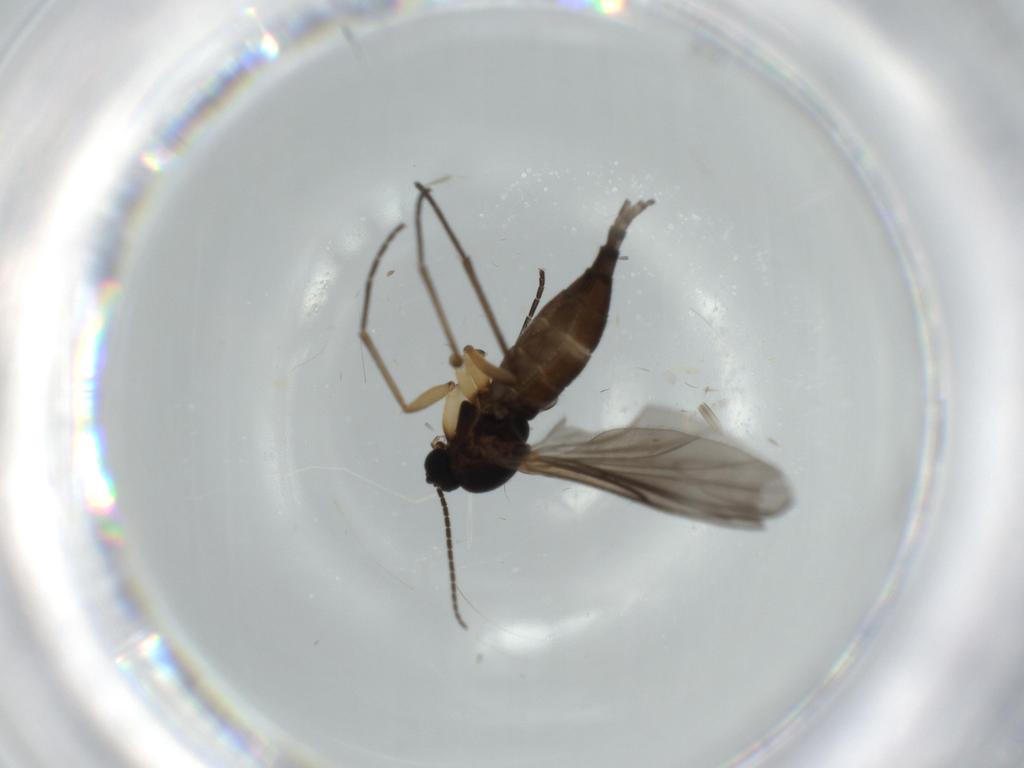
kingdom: Animalia
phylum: Arthropoda
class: Insecta
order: Diptera
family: Sciaridae
